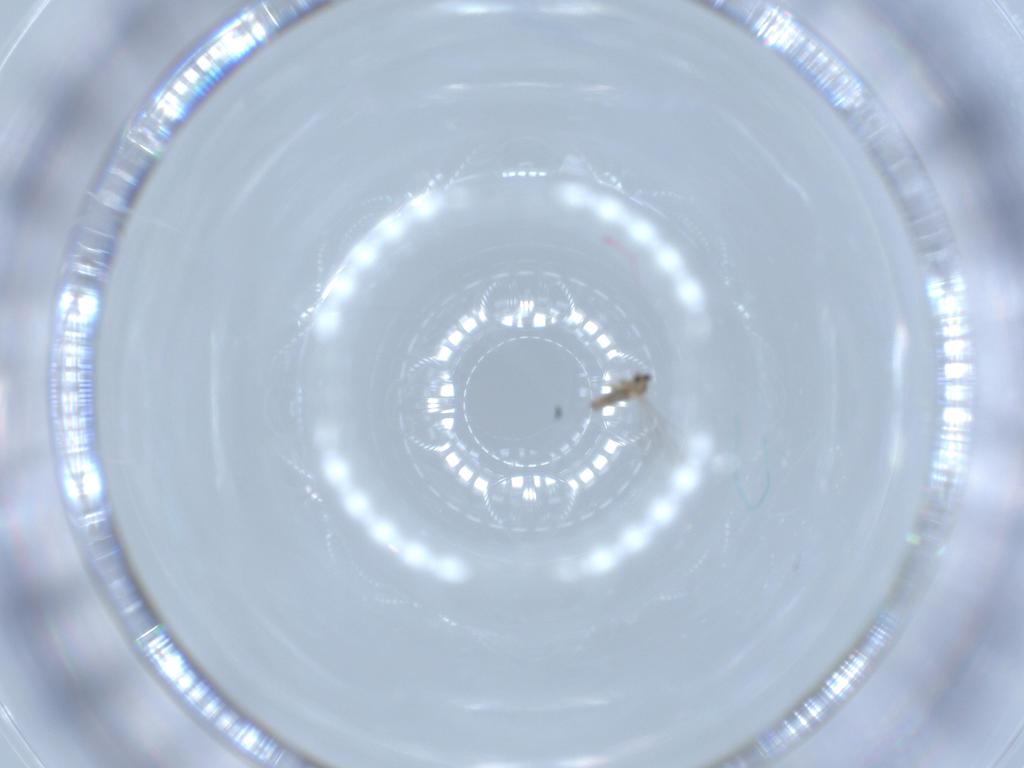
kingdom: Animalia
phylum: Arthropoda
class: Insecta
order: Diptera
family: Cecidomyiidae
